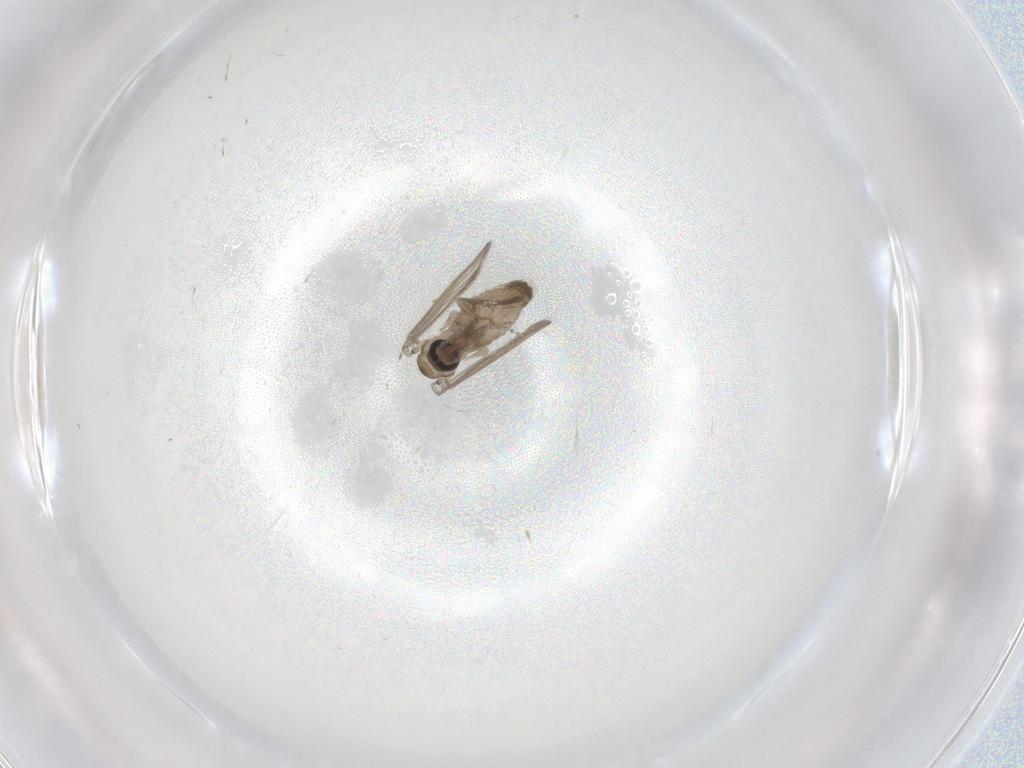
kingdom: Animalia
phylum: Arthropoda
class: Insecta
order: Diptera
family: Psychodidae
